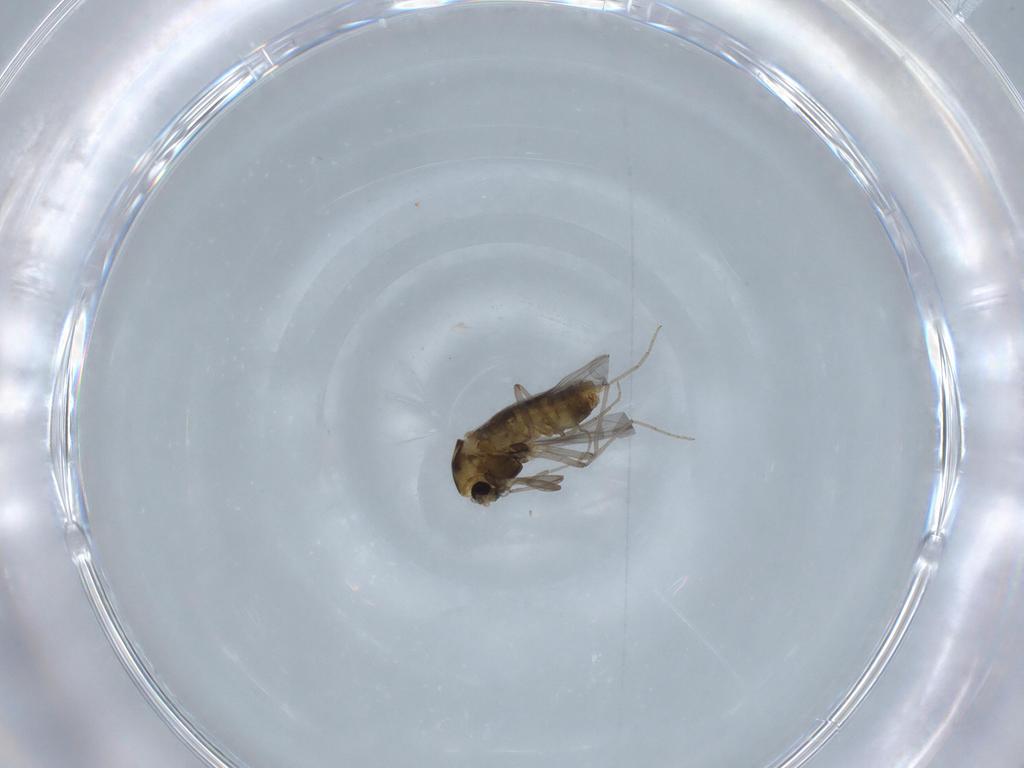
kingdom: Animalia
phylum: Arthropoda
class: Insecta
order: Diptera
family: Chironomidae
